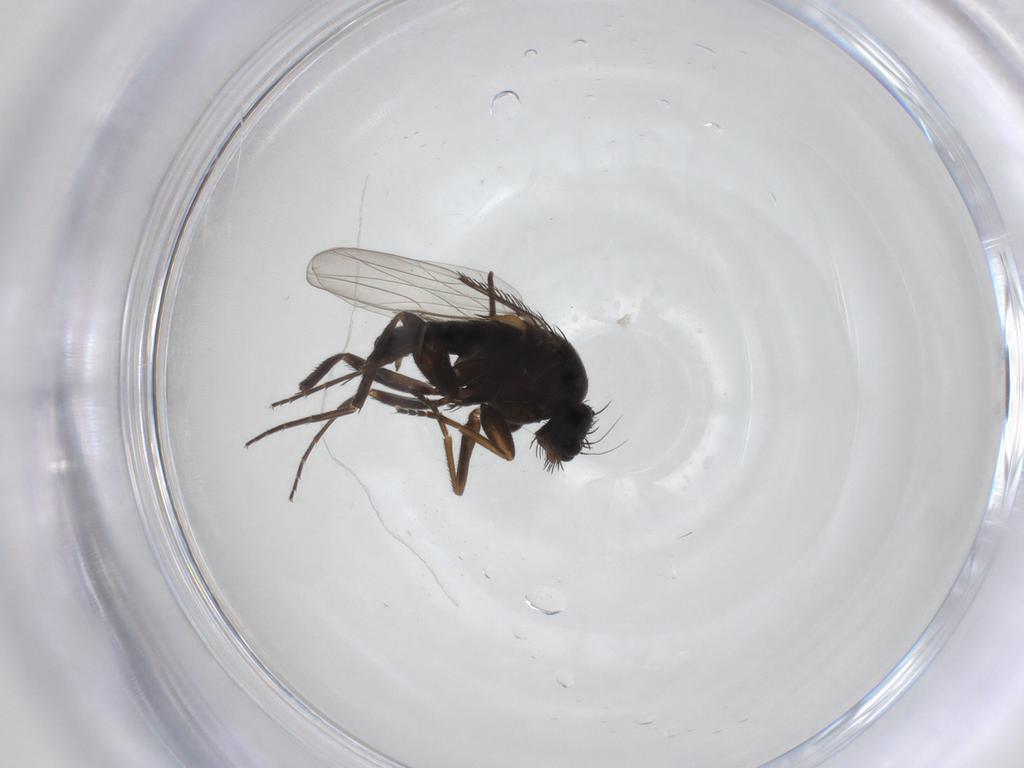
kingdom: Animalia
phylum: Arthropoda
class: Insecta
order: Diptera
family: Phoridae
